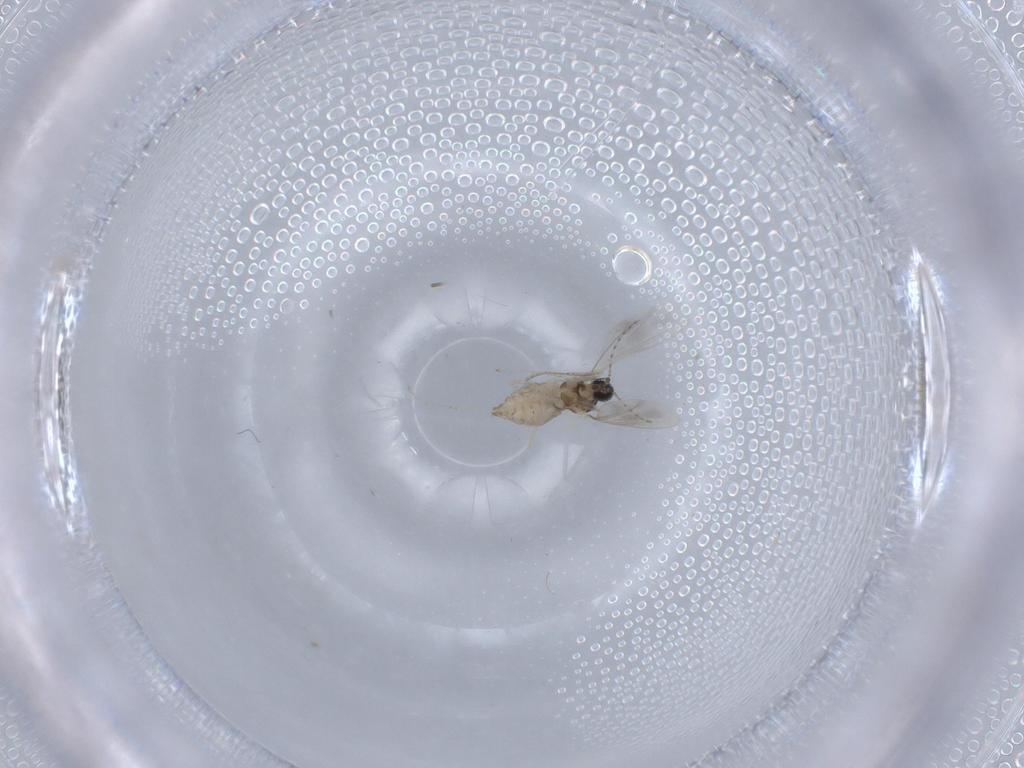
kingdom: Animalia
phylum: Arthropoda
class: Insecta
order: Diptera
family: Cecidomyiidae
